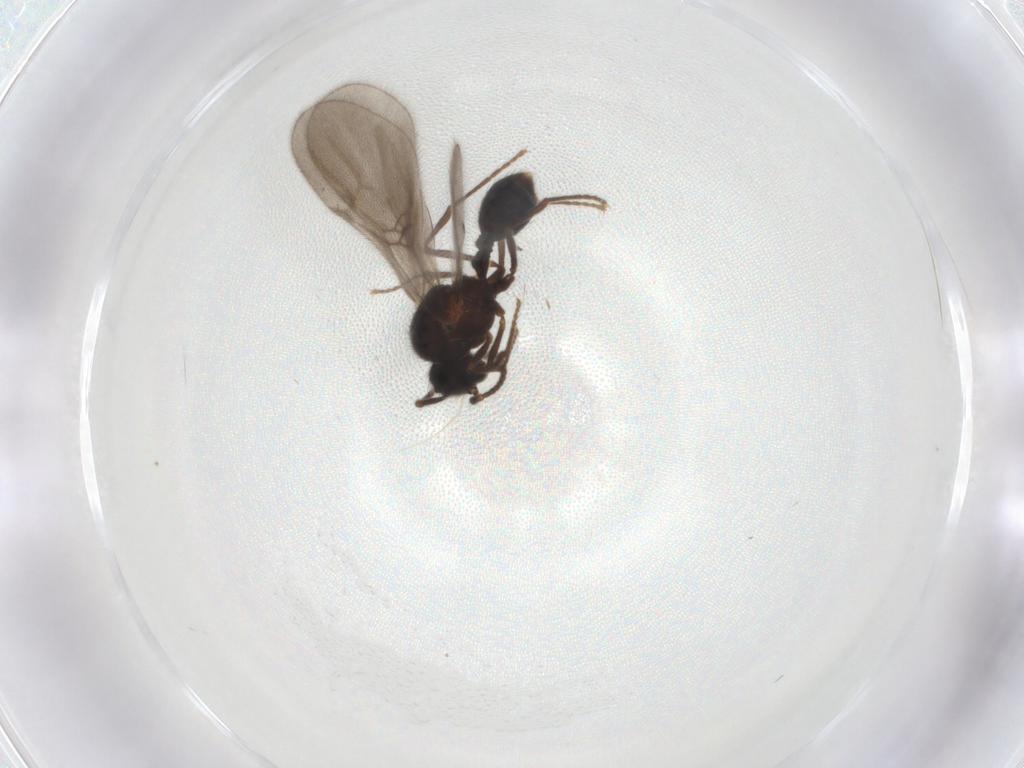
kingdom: Animalia
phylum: Arthropoda
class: Insecta
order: Hymenoptera
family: Formicidae
